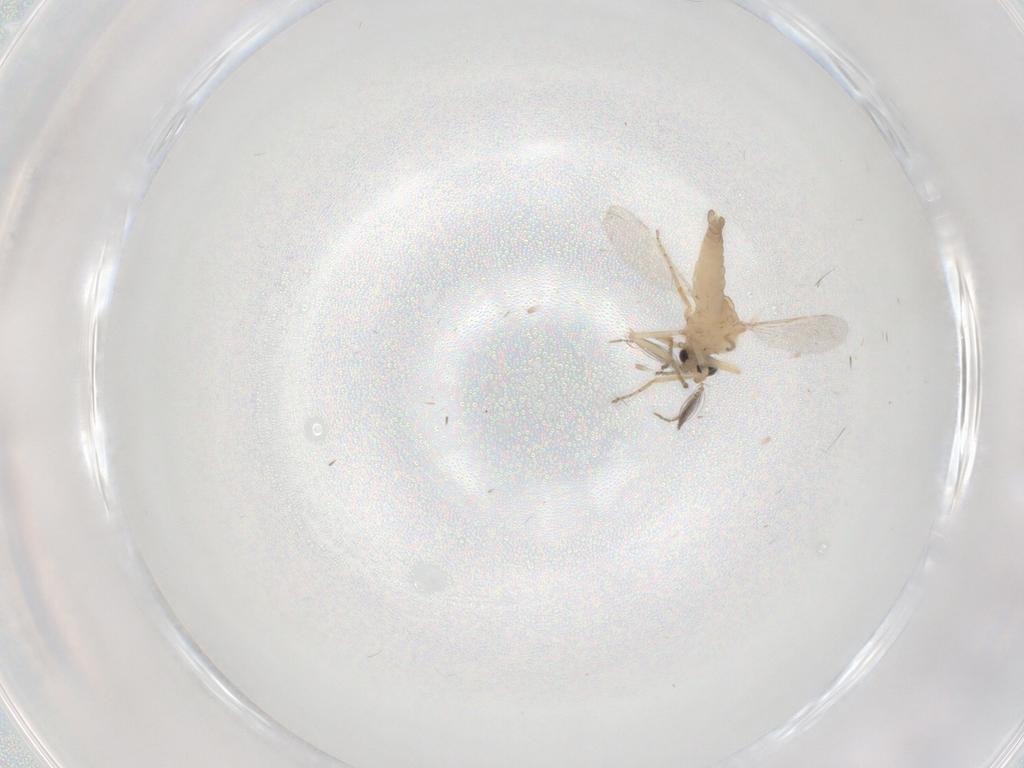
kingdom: Animalia
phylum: Arthropoda
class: Insecta
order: Diptera
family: Ceratopogonidae
